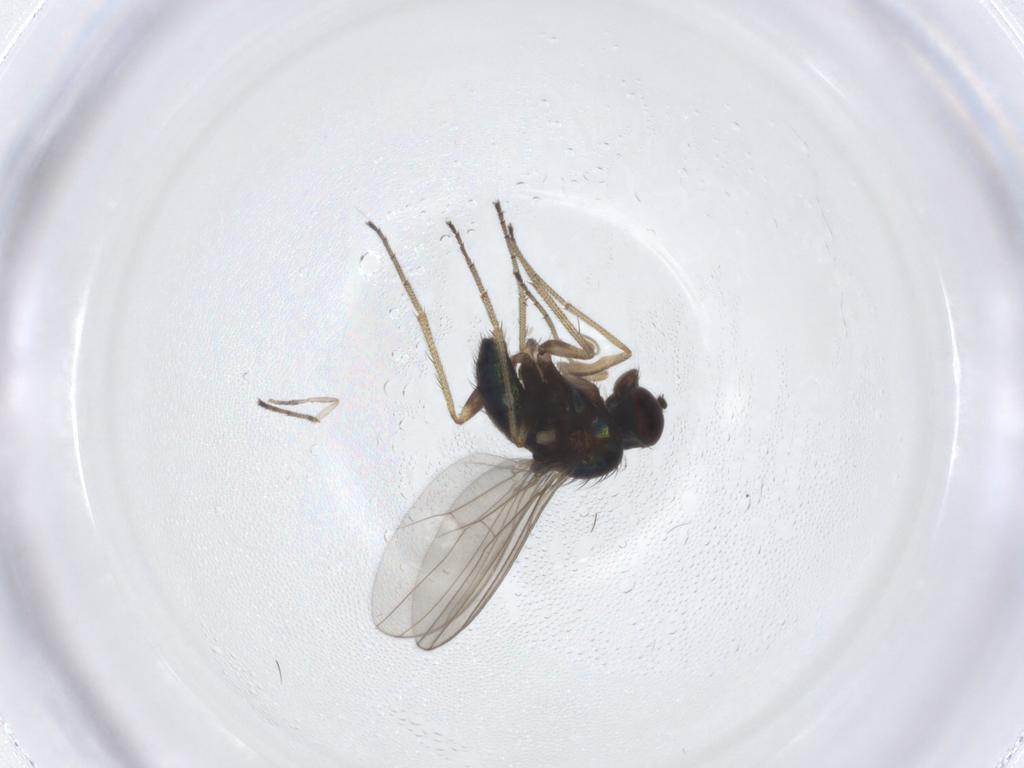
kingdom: Animalia
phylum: Arthropoda
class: Insecta
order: Diptera
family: Dolichopodidae
